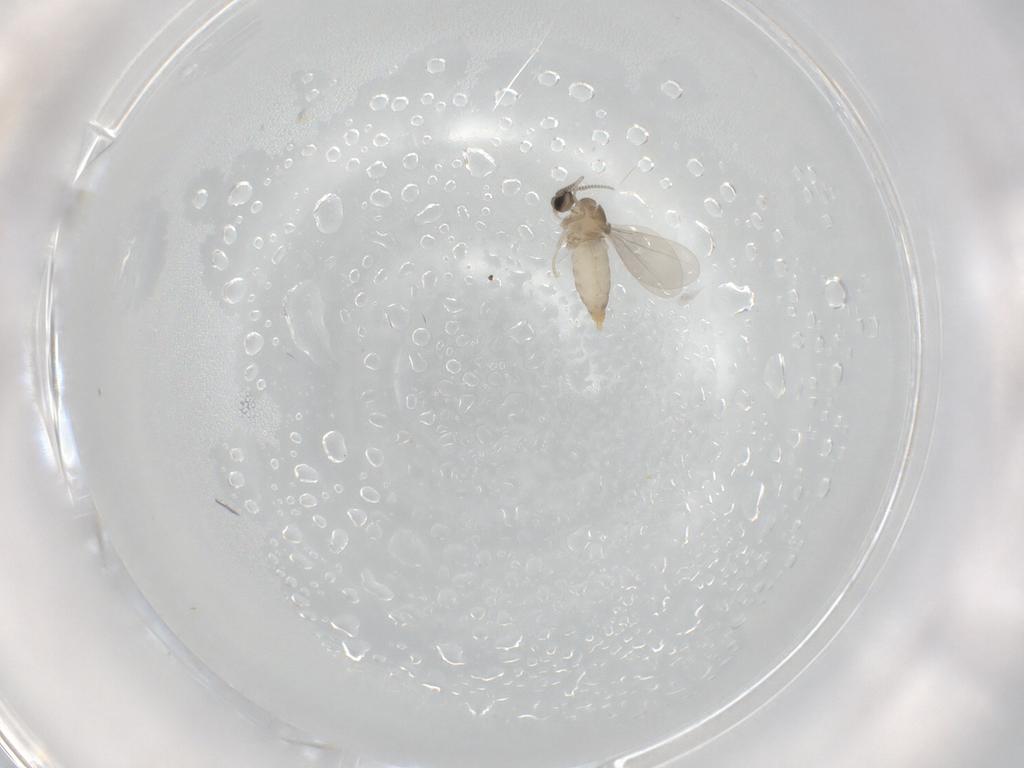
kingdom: Animalia
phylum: Arthropoda
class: Insecta
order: Diptera
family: Cecidomyiidae
